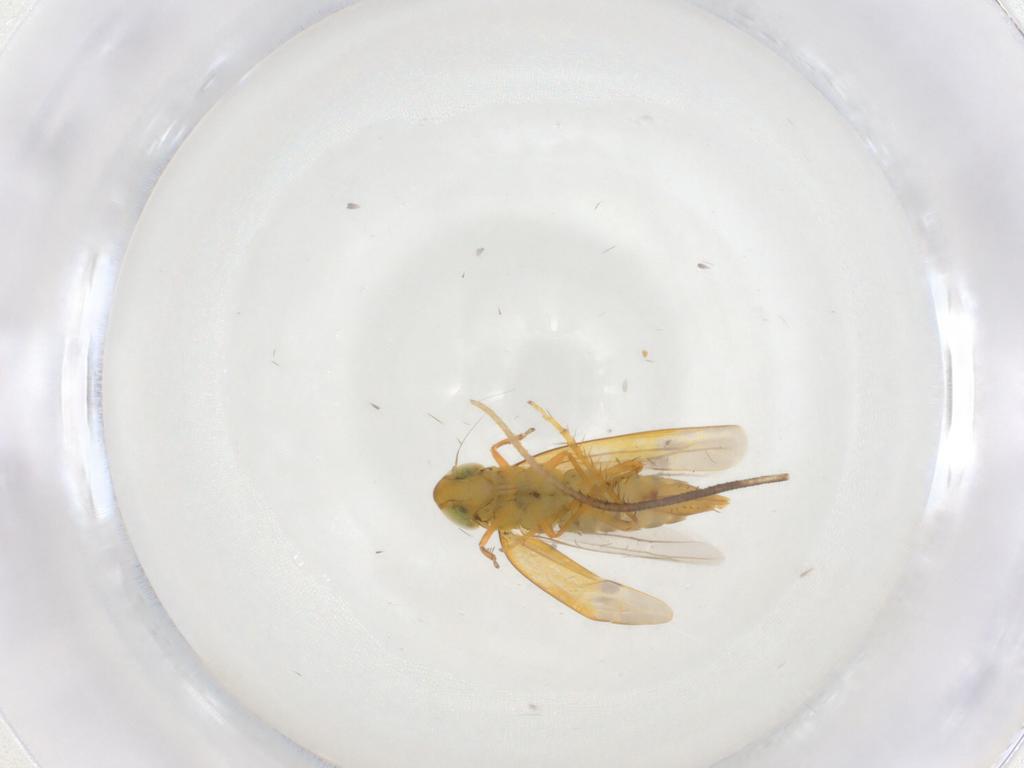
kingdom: Animalia
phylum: Arthropoda
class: Insecta
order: Hemiptera
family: Cicadellidae
